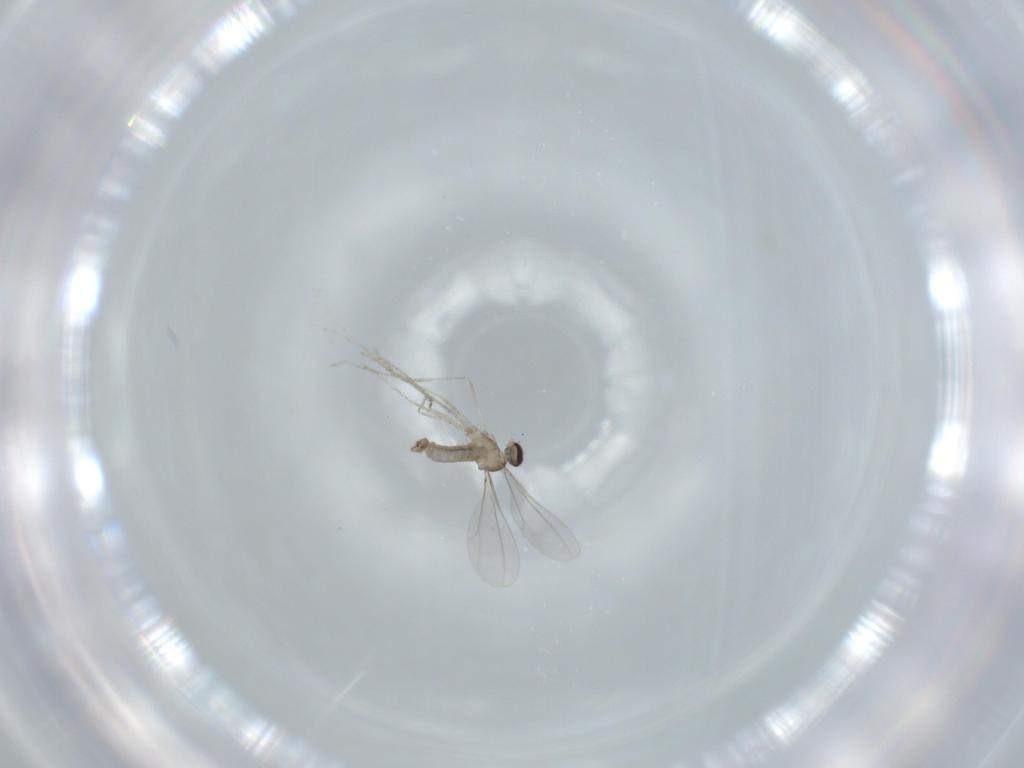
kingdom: Animalia
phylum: Arthropoda
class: Insecta
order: Diptera
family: Cecidomyiidae
